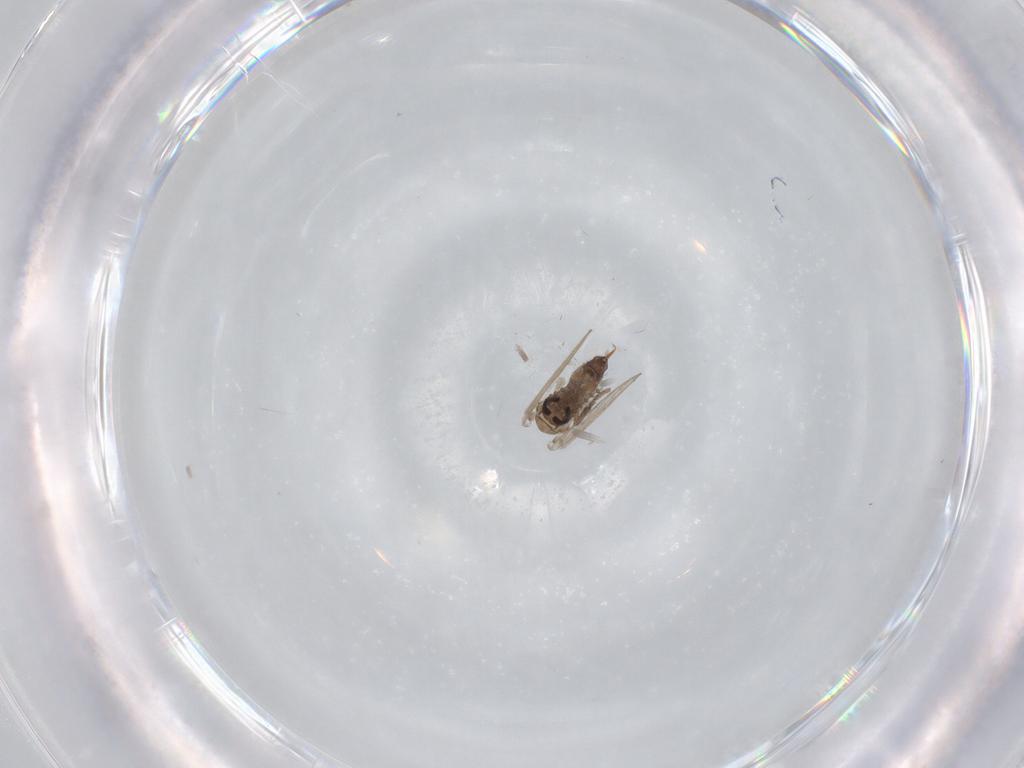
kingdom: Animalia
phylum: Arthropoda
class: Insecta
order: Diptera
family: Psychodidae
